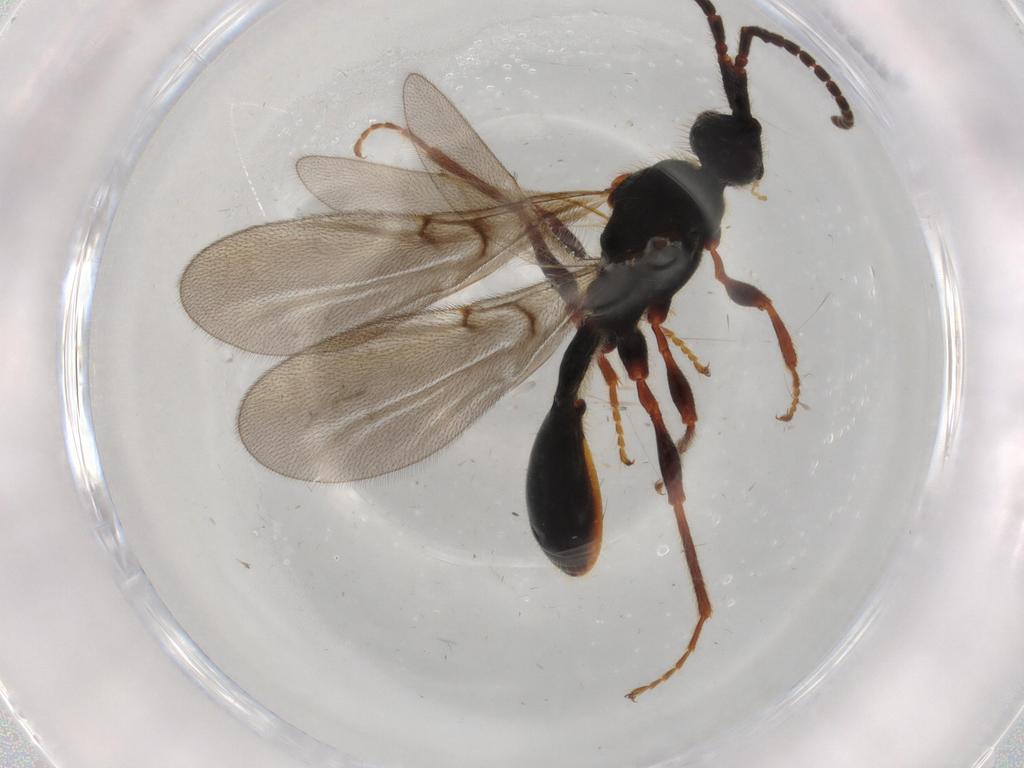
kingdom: Animalia
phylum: Arthropoda
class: Insecta
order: Hymenoptera
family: Diapriidae
